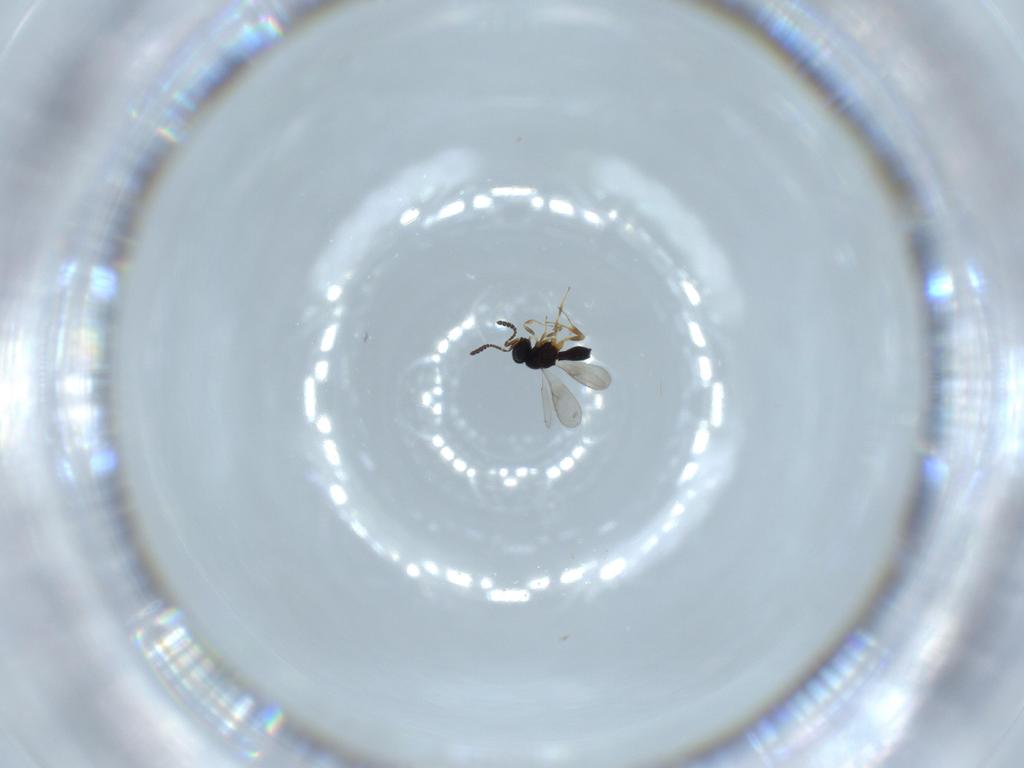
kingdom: Animalia
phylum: Arthropoda
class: Insecta
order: Hymenoptera
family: Scelionidae
